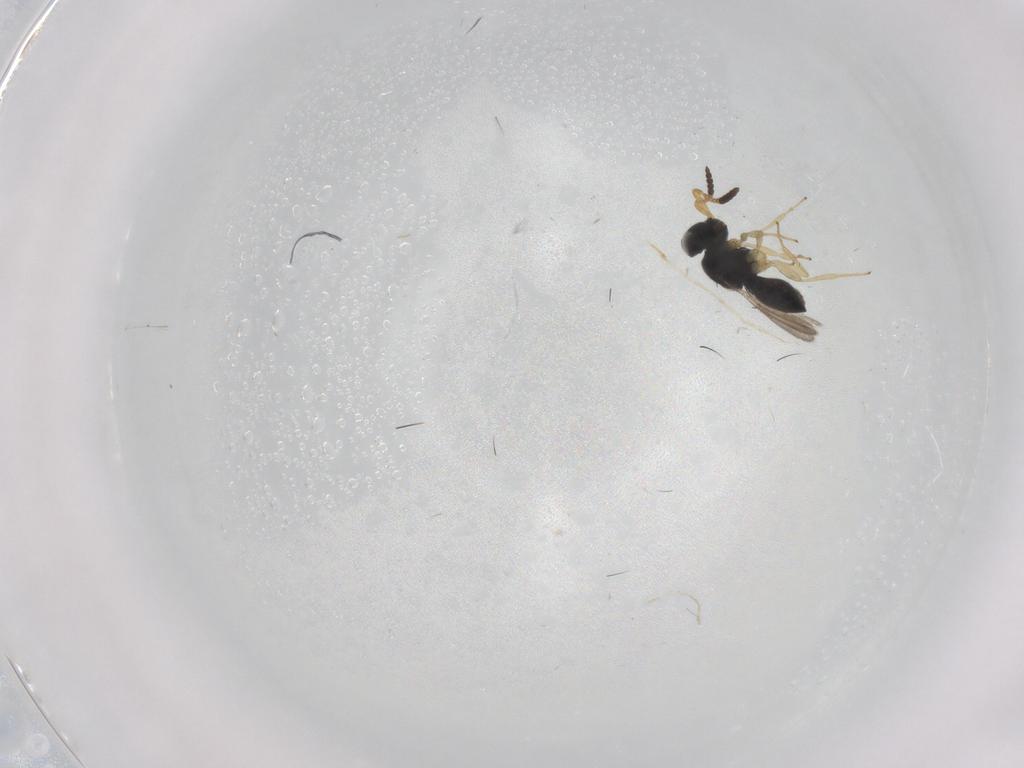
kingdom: Animalia
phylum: Arthropoda
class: Insecta
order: Hymenoptera
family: Scelionidae
